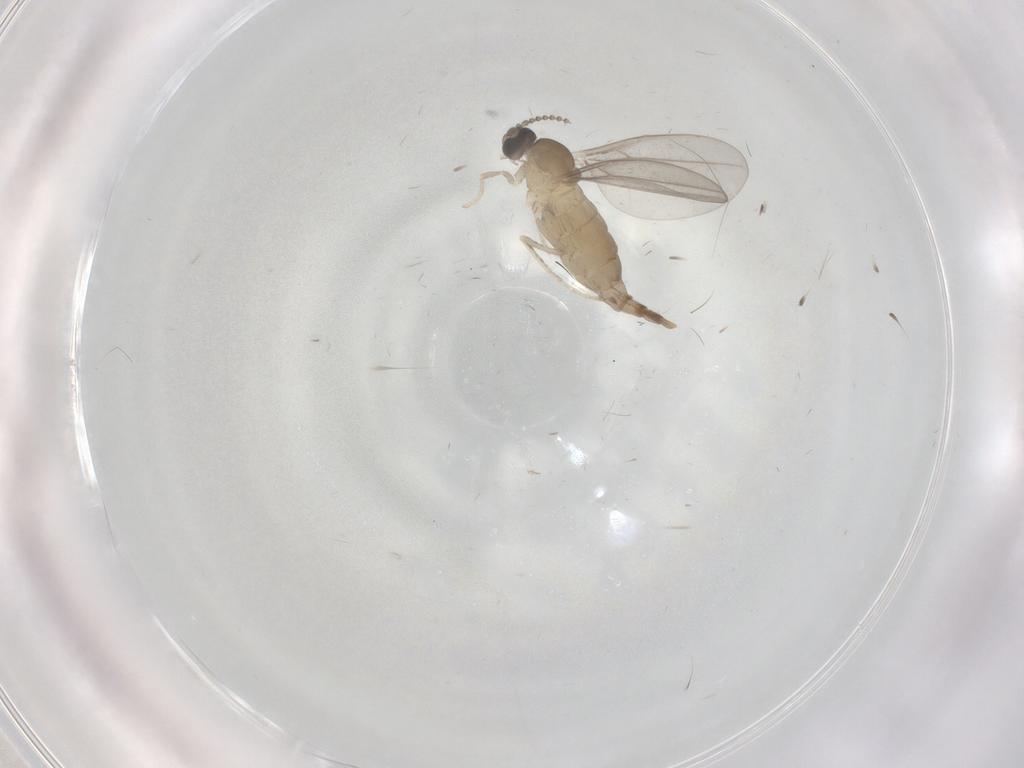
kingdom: Animalia
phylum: Arthropoda
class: Insecta
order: Diptera
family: Cecidomyiidae
